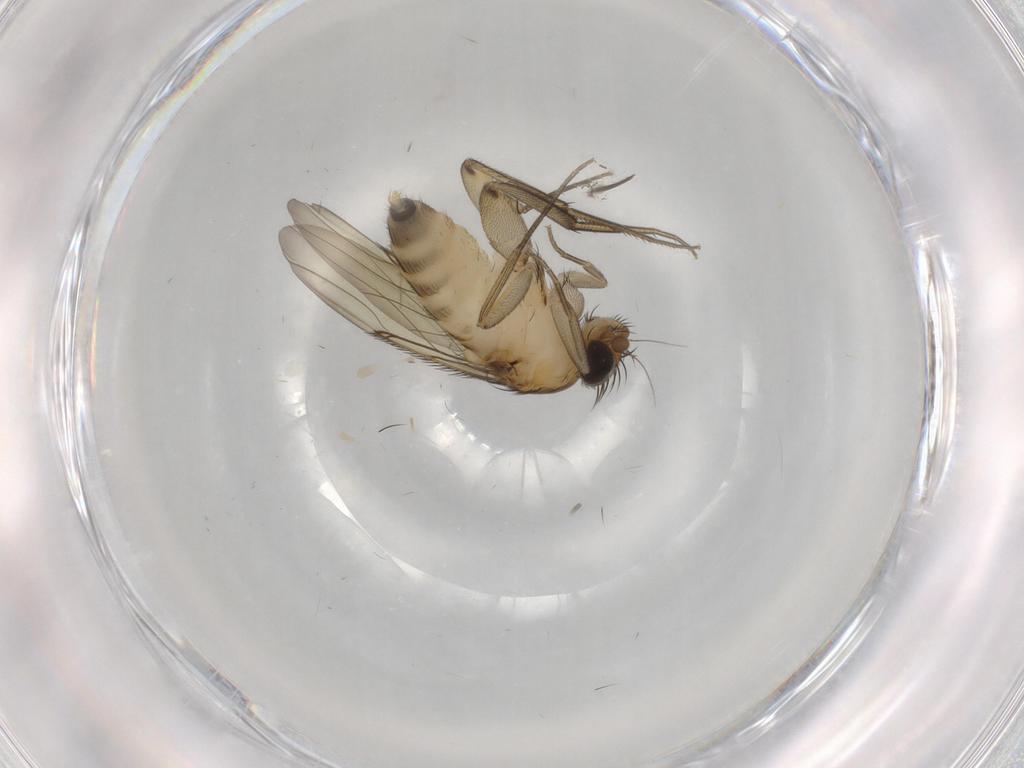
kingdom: Animalia
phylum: Arthropoda
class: Insecta
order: Diptera
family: Phoridae
